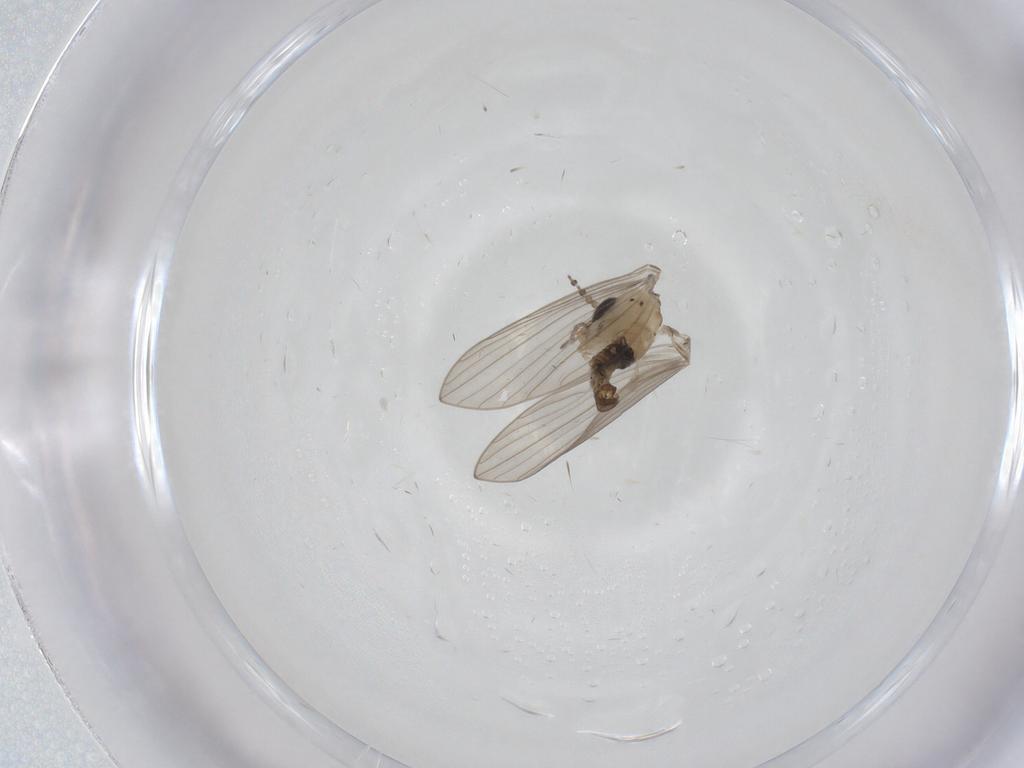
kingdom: Animalia
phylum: Arthropoda
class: Insecta
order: Diptera
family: Psychodidae
